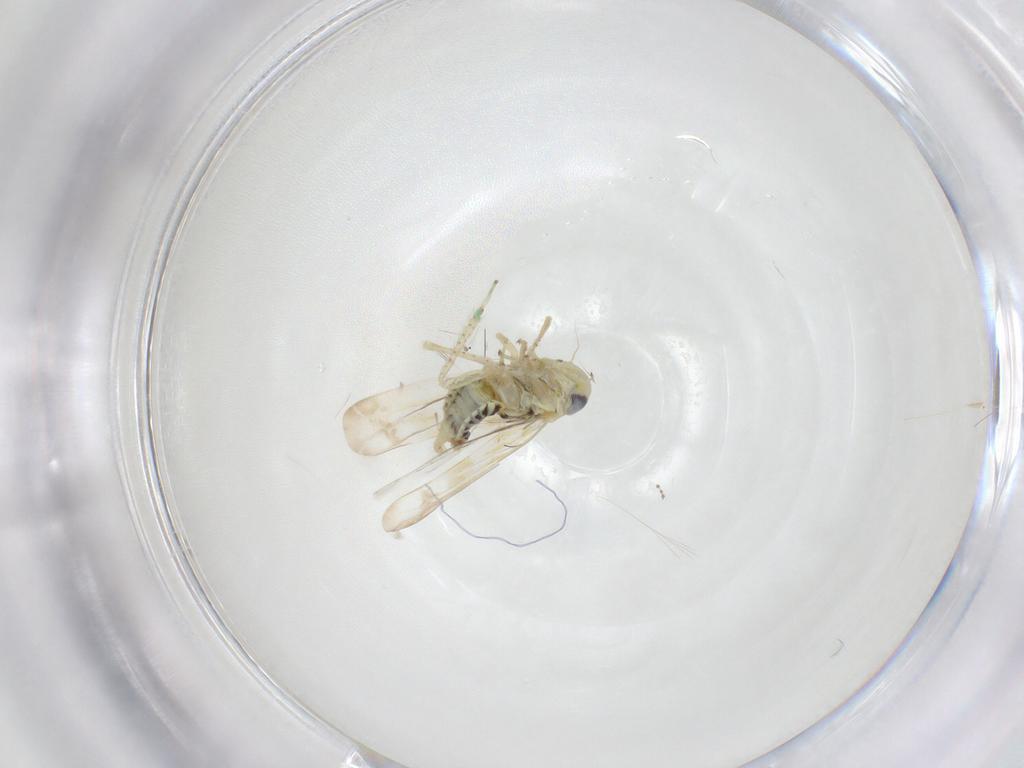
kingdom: Animalia
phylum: Arthropoda
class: Insecta
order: Hemiptera
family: Cicadellidae
